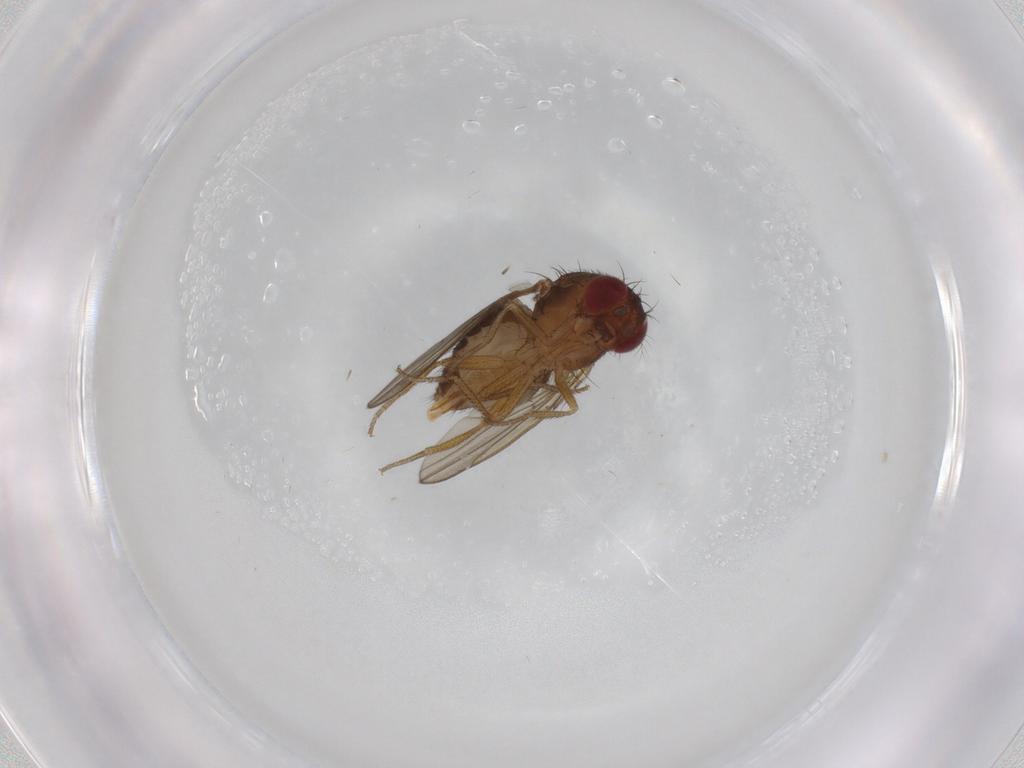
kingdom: Animalia
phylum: Arthropoda
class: Insecta
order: Diptera
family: Drosophilidae
